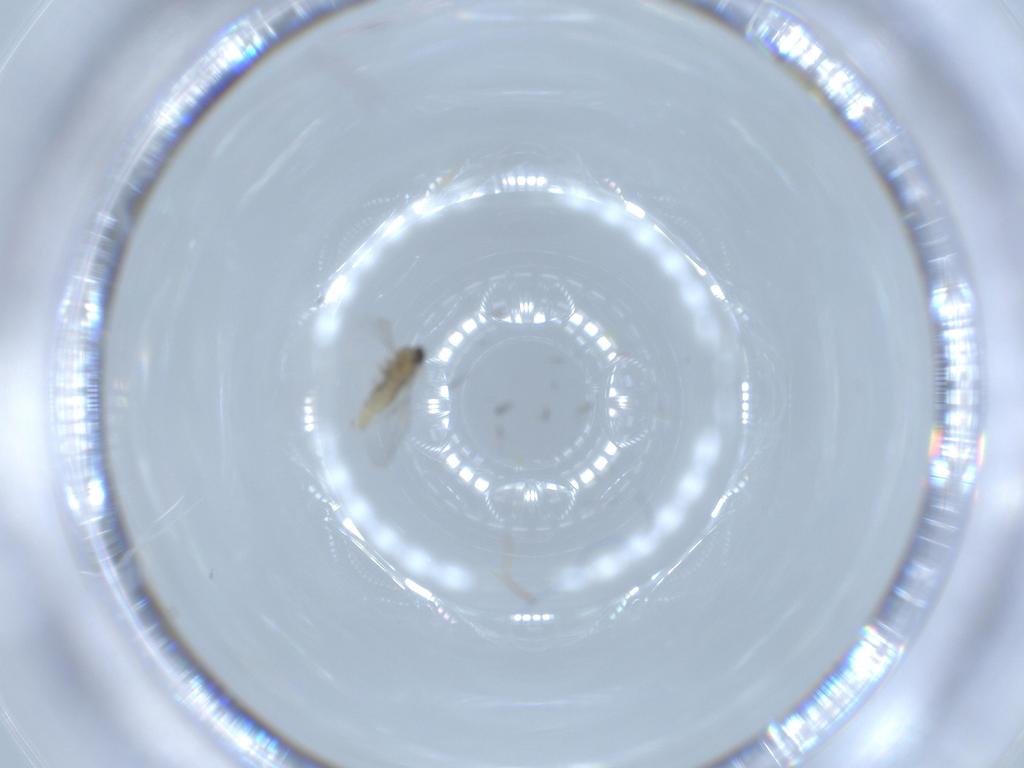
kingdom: Animalia
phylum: Arthropoda
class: Insecta
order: Diptera
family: Cecidomyiidae
